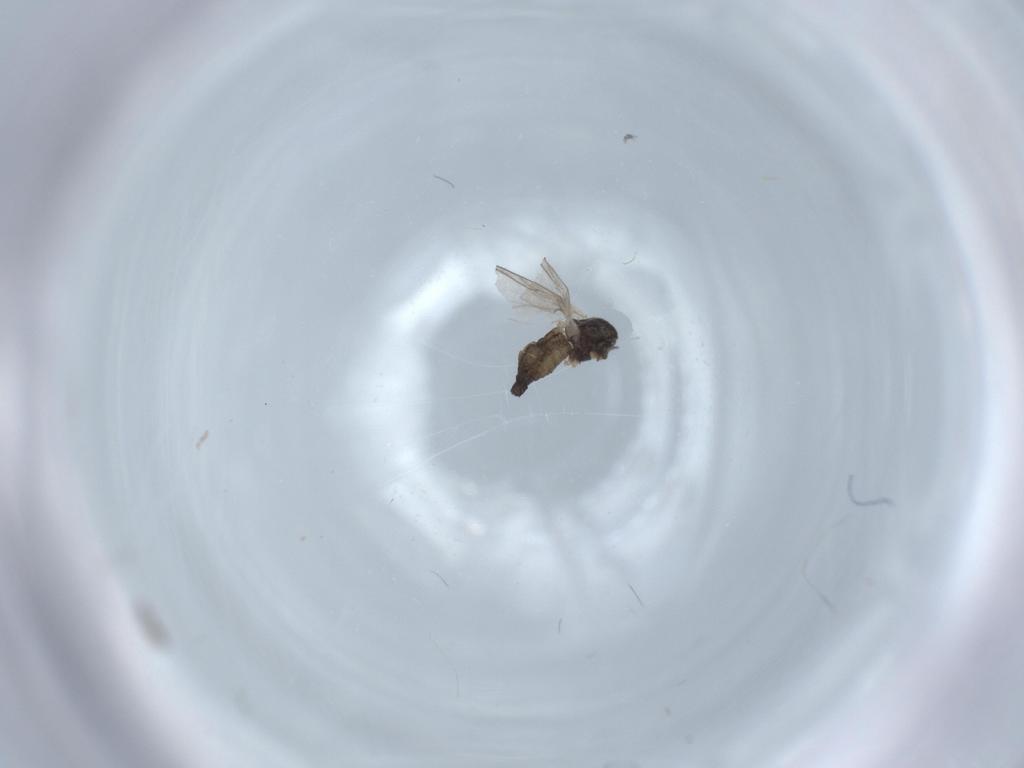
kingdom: Animalia
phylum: Arthropoda
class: Insecta
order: Diptera
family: Chironomidae
